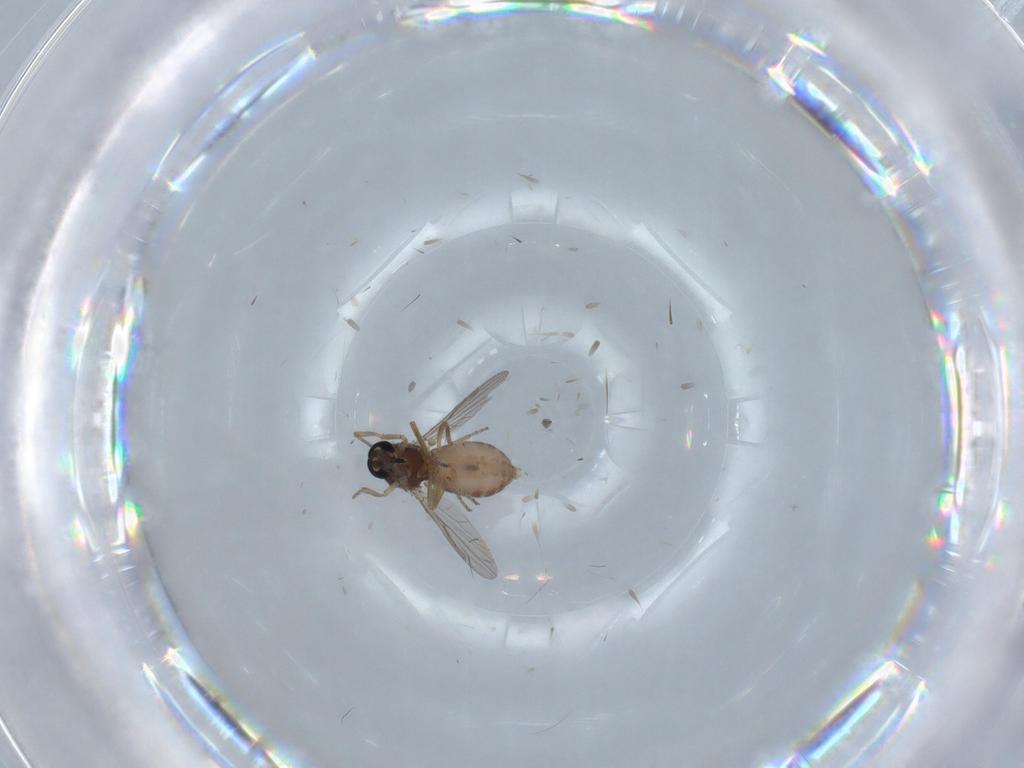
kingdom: Animalia
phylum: Arthropoda
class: Insecta
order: Diptera
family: Ceratopogonidae
